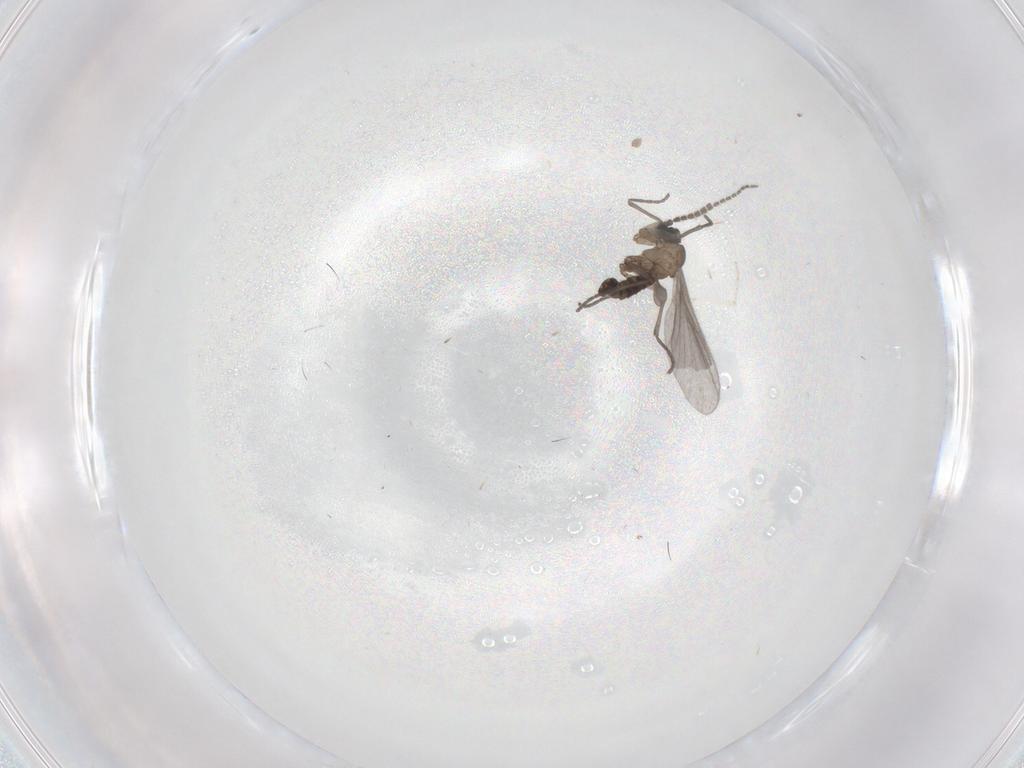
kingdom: Animalia
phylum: Arthropoda
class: Insecta
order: Diptera
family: Sciaridae
